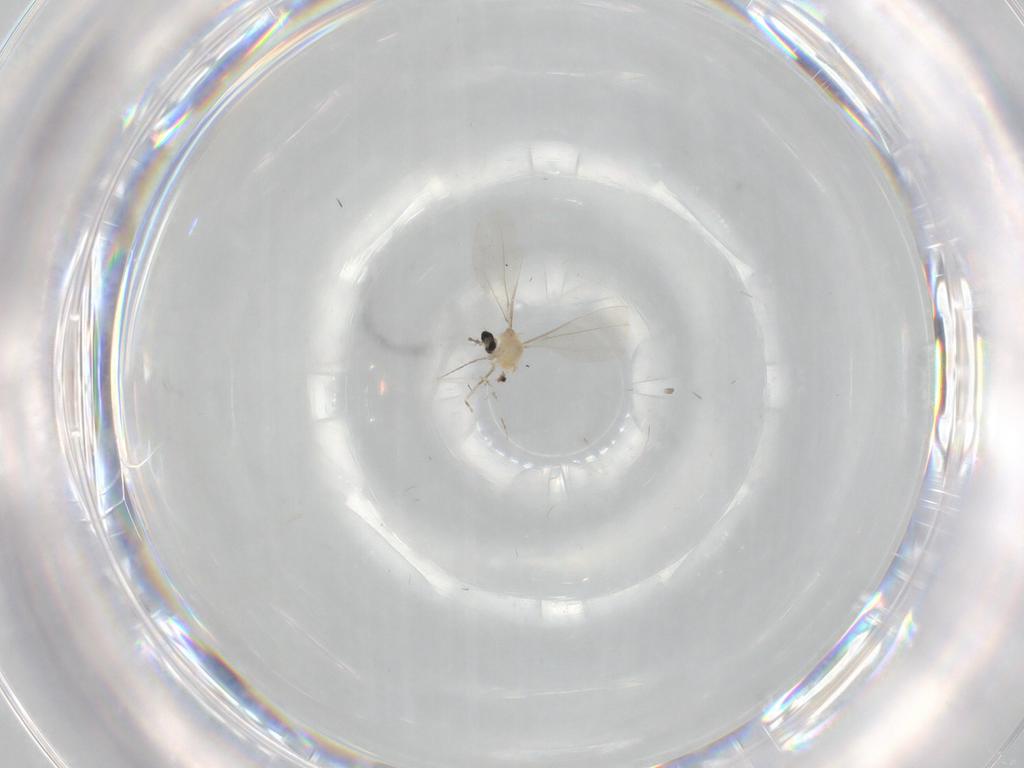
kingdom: Animalia
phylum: Arthropoda
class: Insecta
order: Diptera
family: Cecidomyiidae
